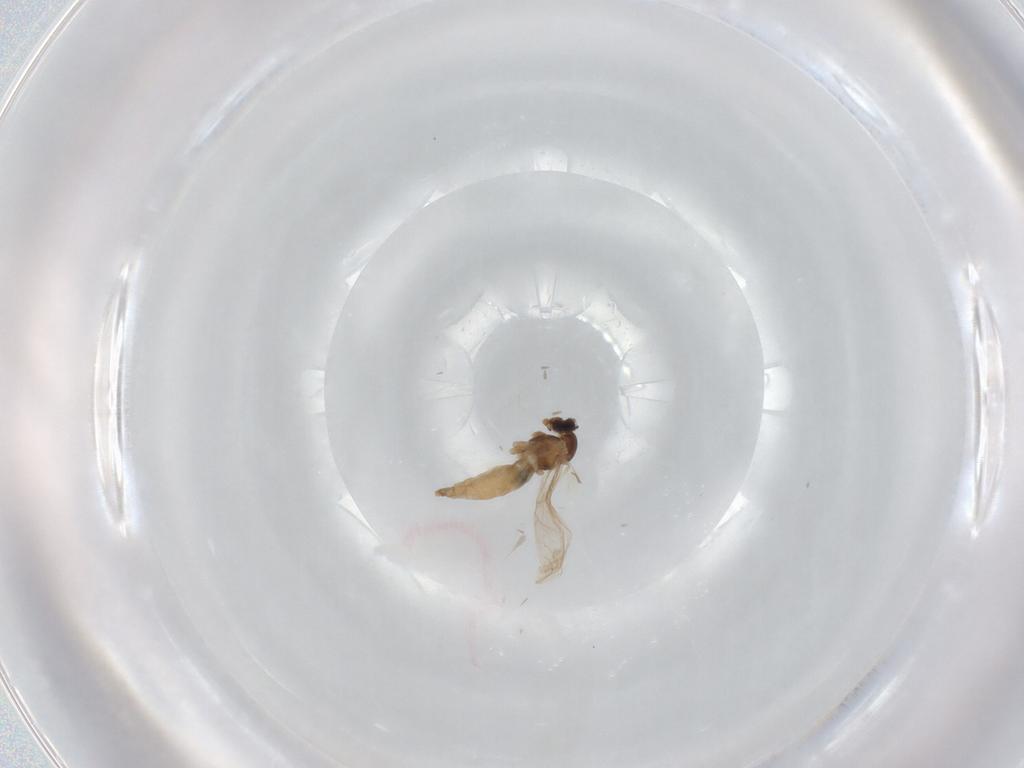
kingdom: Animalia
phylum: Arthropoda
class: Insecta
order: Diptera
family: Cecidomyiidae
